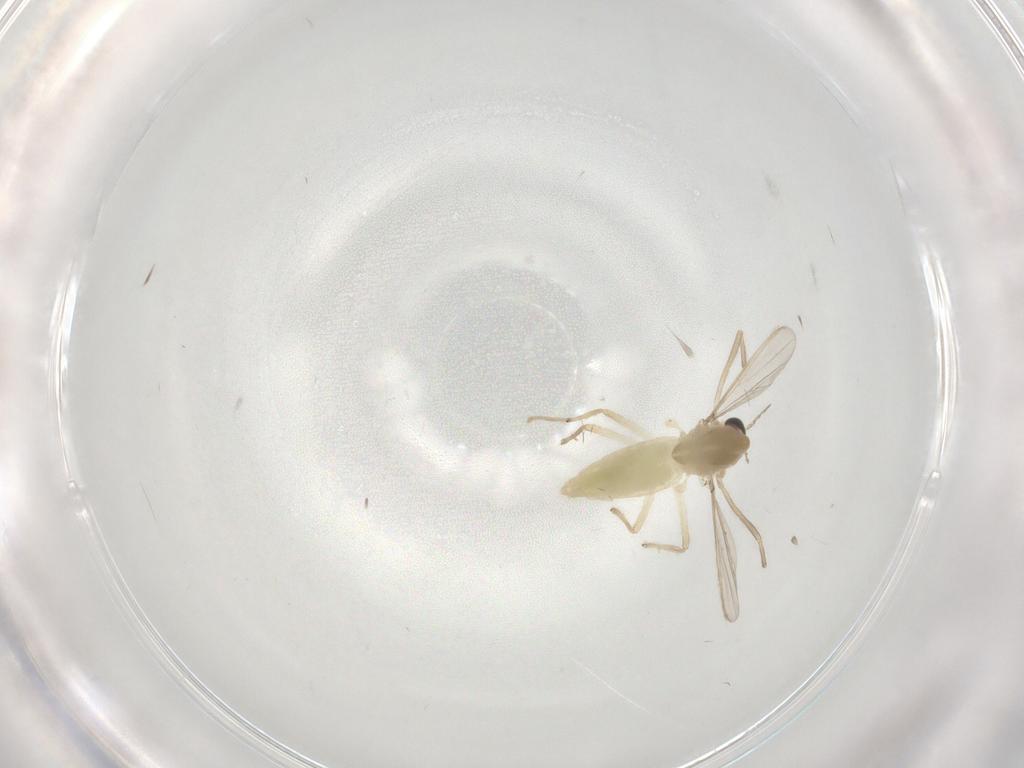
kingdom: Animalia
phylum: Arthropoda
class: Insecta
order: Diptera
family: Chironomidae
